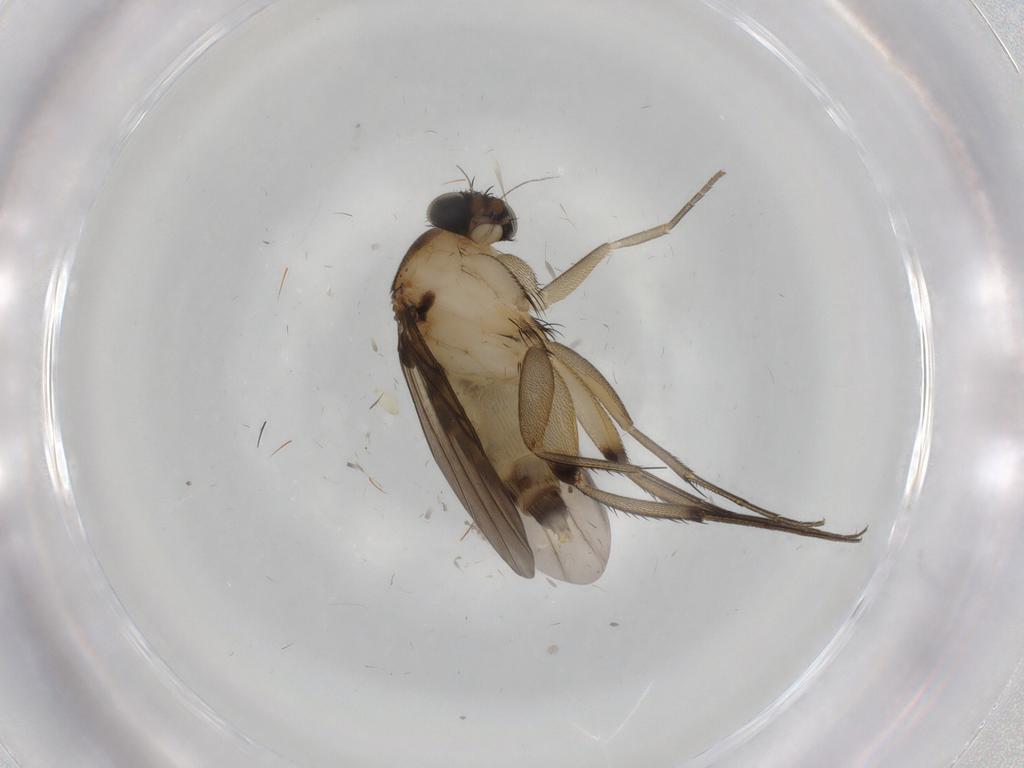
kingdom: Animalia
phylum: Arthropoda
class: Insecta
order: Diptera
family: Phoridae
